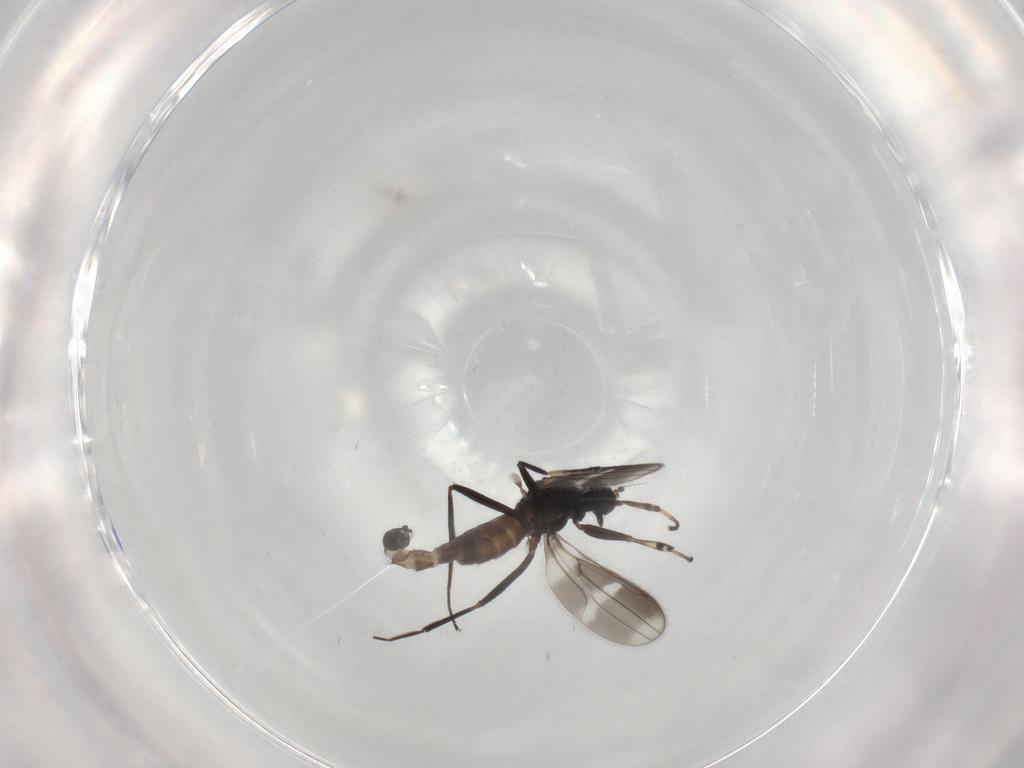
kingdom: Animalia
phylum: Arthropoda
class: Insecta
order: Diptera
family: Hybotidae
